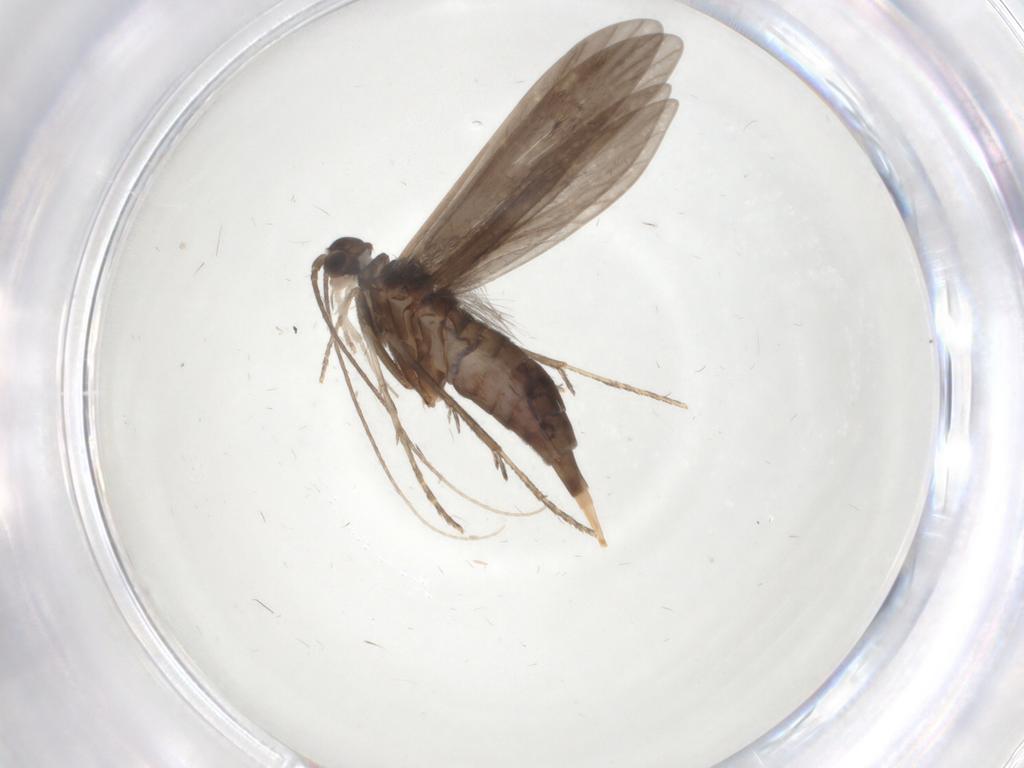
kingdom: Animalia
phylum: Arthropoda
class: Insecta
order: Trichoptera
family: Xiphocentronidae
